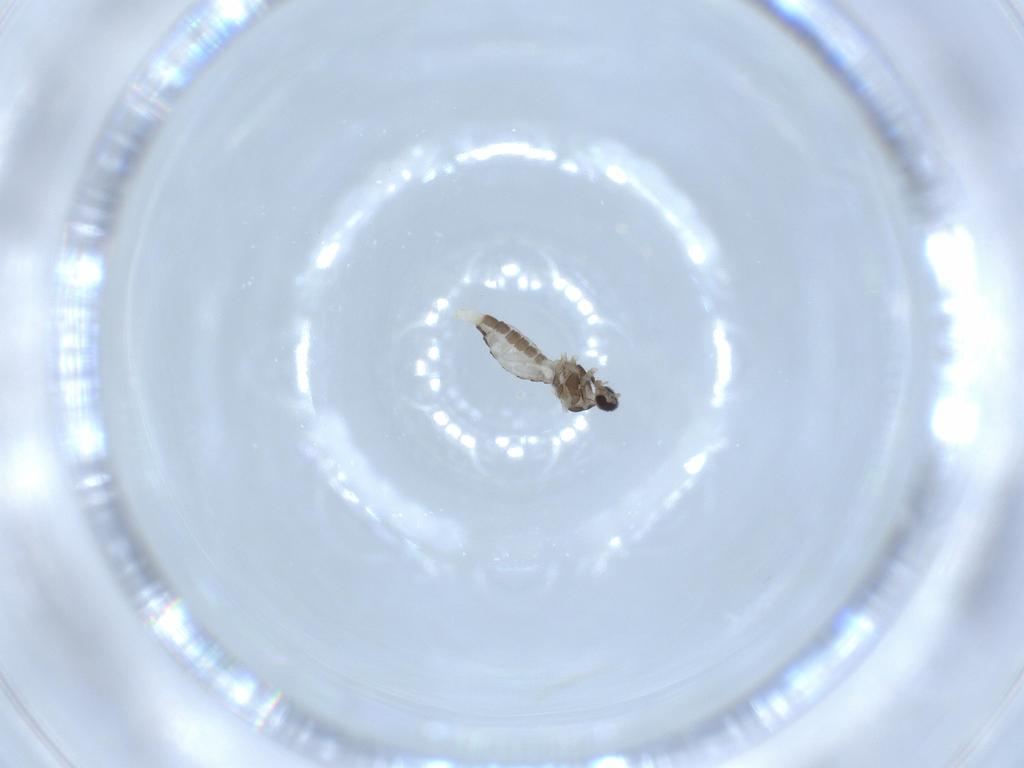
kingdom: Animalia
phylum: Arthropoda
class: Insecta
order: Diptera
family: Cecidomyiidae
